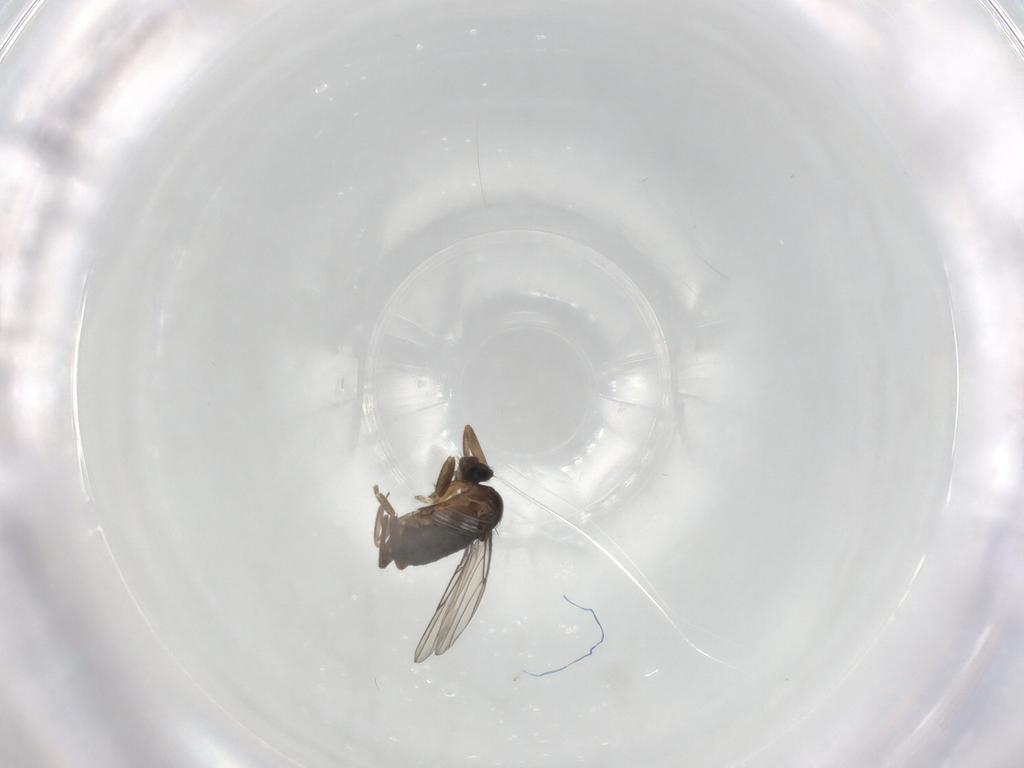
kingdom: Animalia
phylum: Arthropoda
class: Insecta
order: Diptera
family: Phoridae
